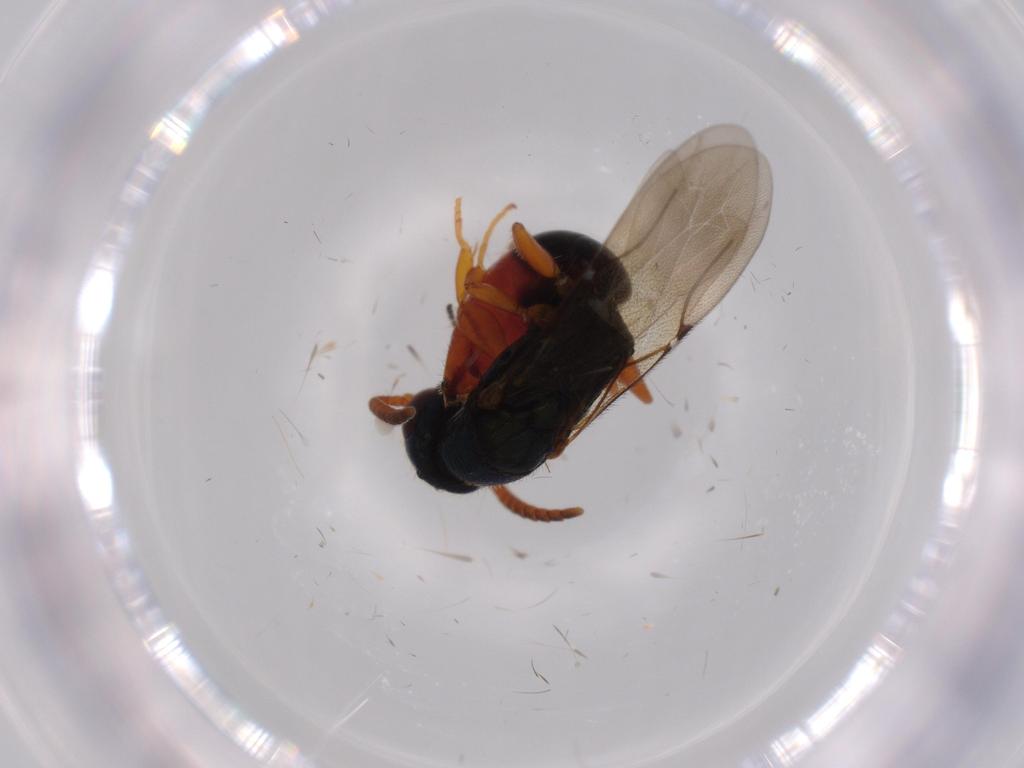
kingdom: Animalia
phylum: Arthropoda
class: Insecta
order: Hymenoptera
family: Bethylidae
